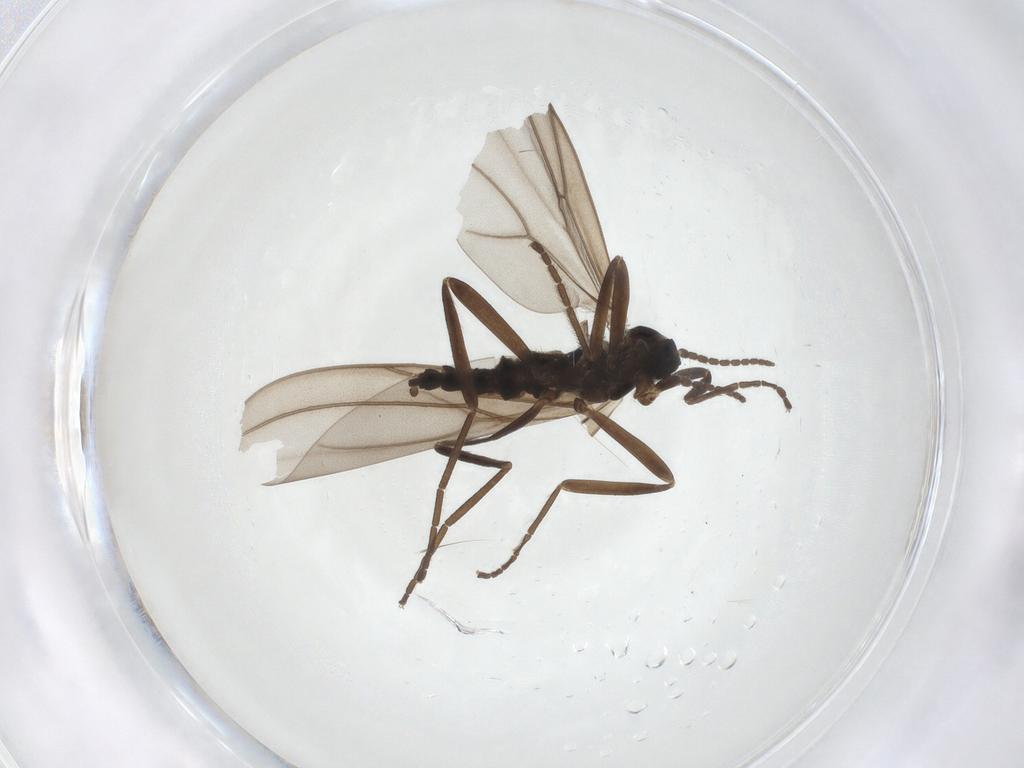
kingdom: Animalia
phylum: Arthropoda
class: Insecta
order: Diptera
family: Cecidomyiidae
